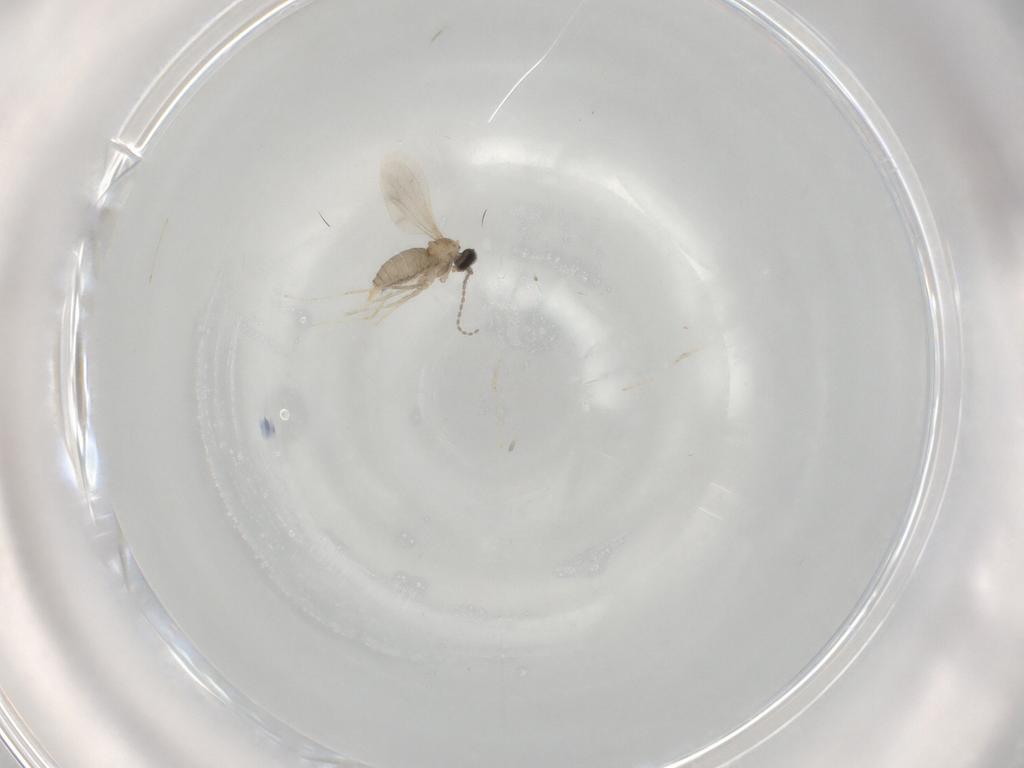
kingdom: Animalia
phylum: Arthropoda
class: Insecta
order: Diptera
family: Cecidomyiidae
